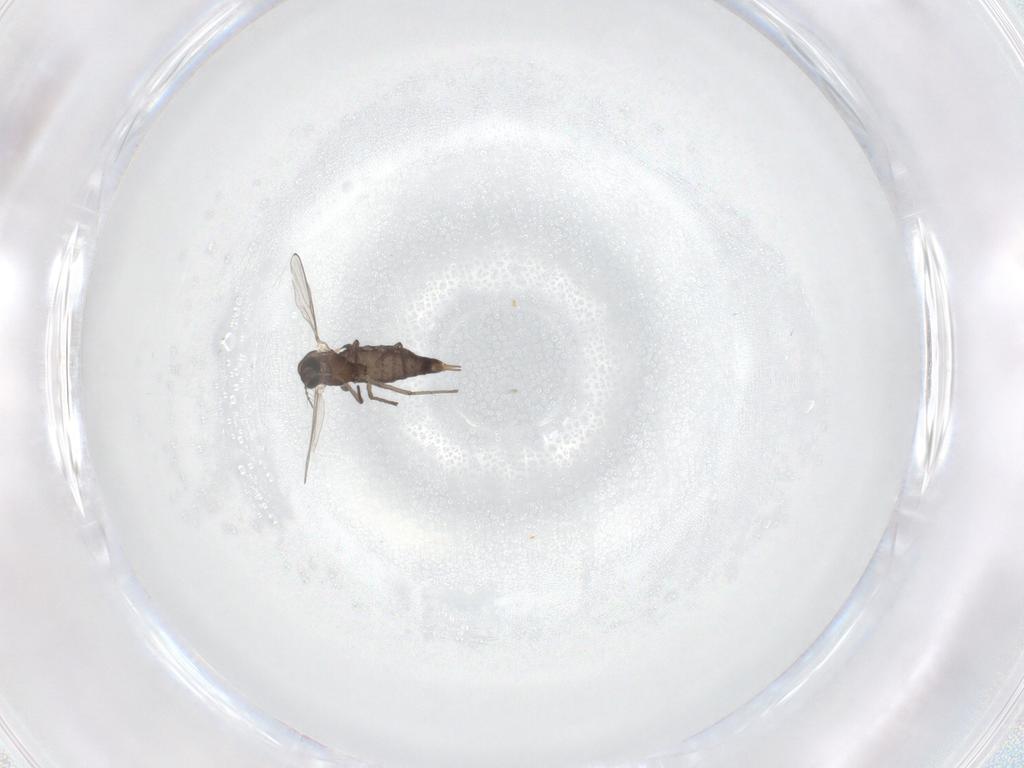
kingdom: Animalia
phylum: Arthropoda
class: Insecta
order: Diptera
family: Chironomidae
